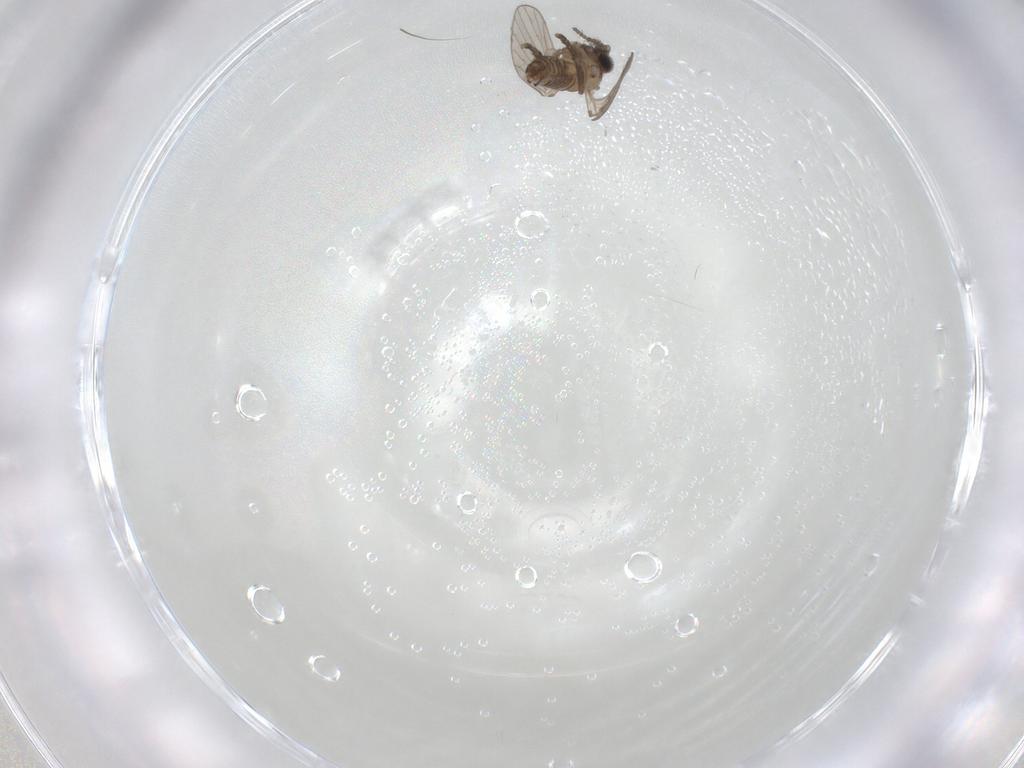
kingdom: Animalia
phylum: Arthropoda
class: Insecta
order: Diptera
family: Psychodidae
